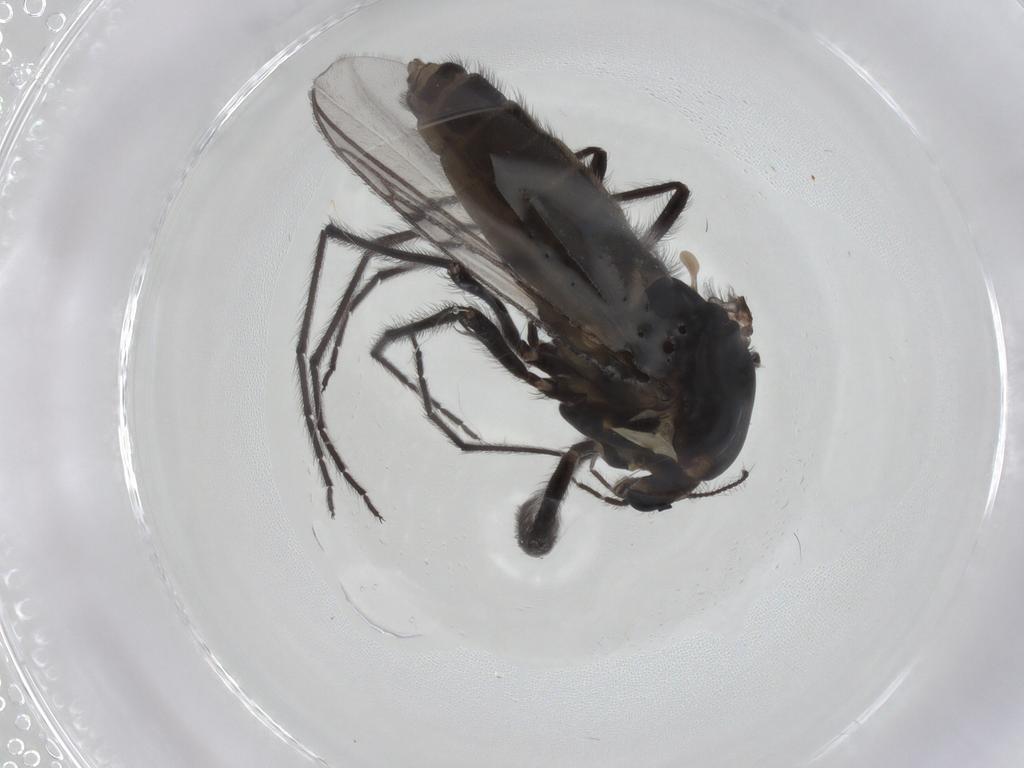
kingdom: Animalia
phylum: Arthropoda
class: Insecta
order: Diptera
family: Chironomidae
